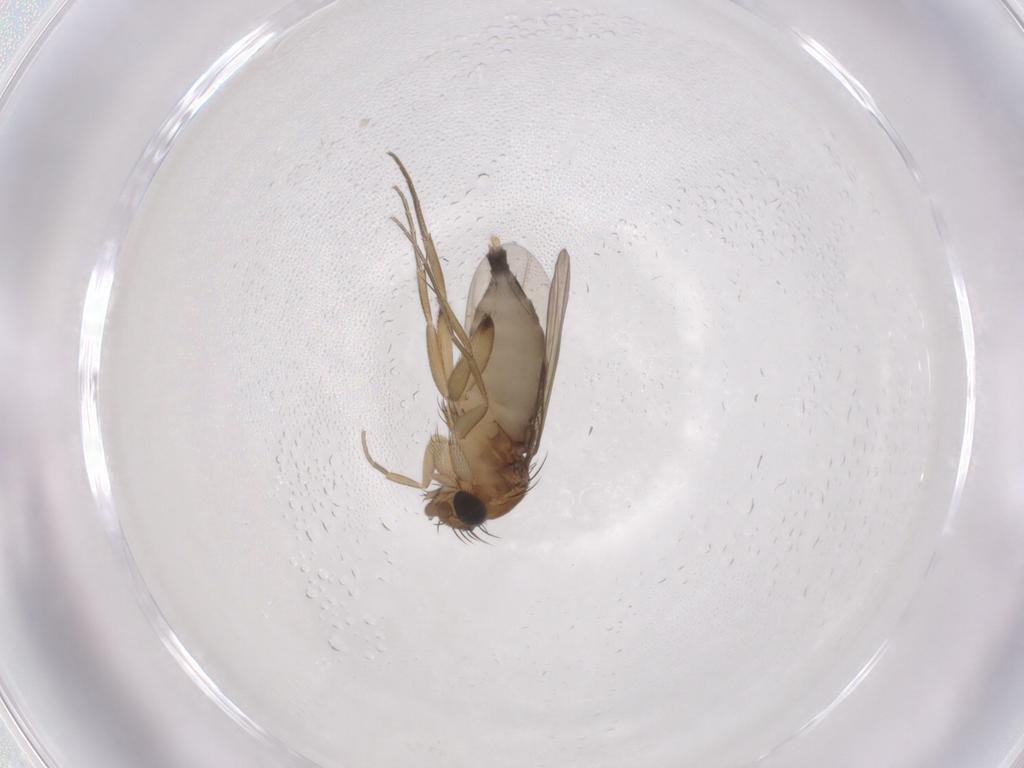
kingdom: Animalia
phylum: Arthropoda
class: Insecta
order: Diptera
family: Phoridae
